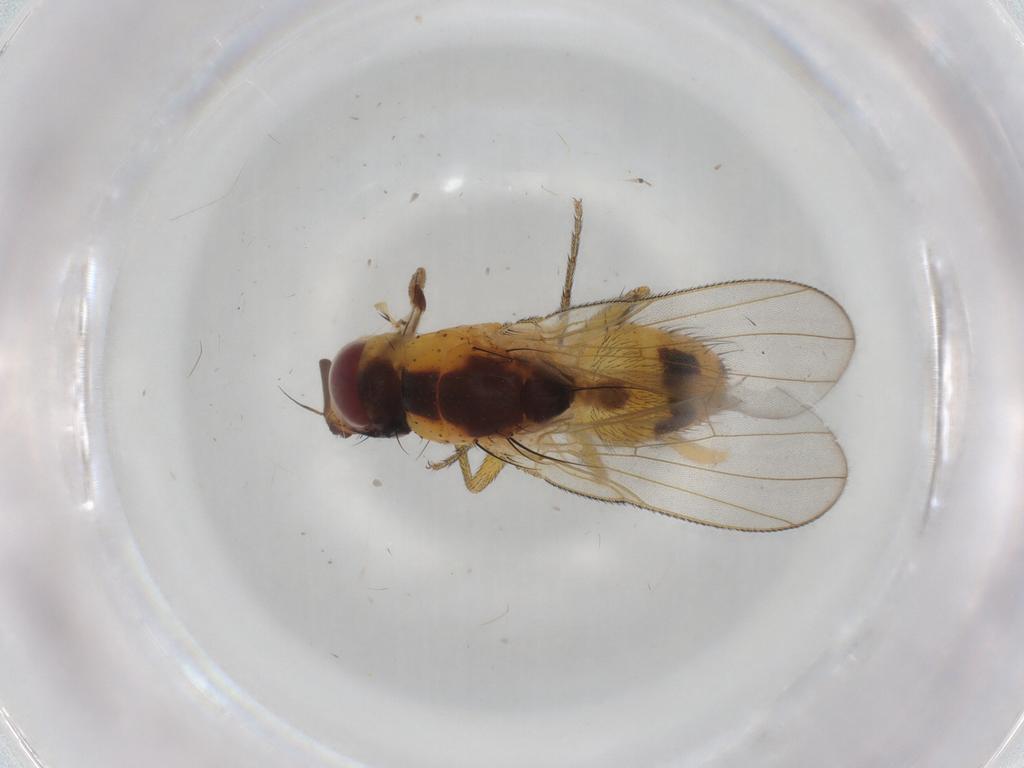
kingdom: Animalia
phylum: Arthropoda
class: Insecta
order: Diptera
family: Muscidae
